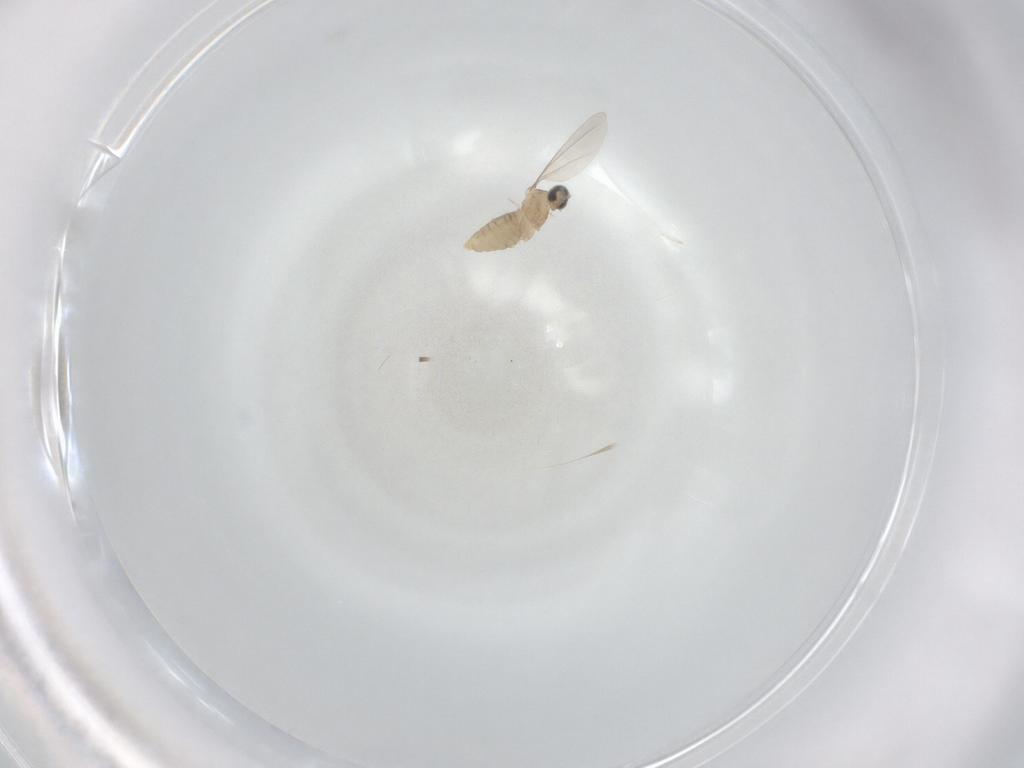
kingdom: Animalia
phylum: Arthropoda
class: Insecta
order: Diptera
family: Cecidomyiidae
